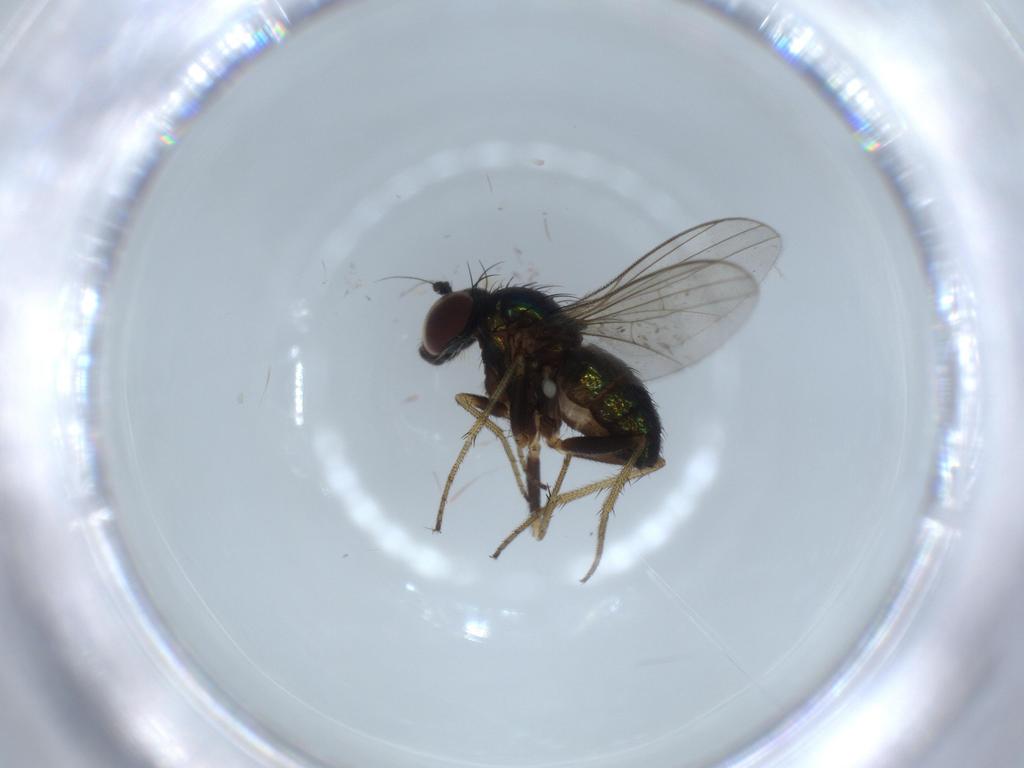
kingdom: Animalia
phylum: Arthropoda
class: Insecta
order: Diptera
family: Dolichopodidae
